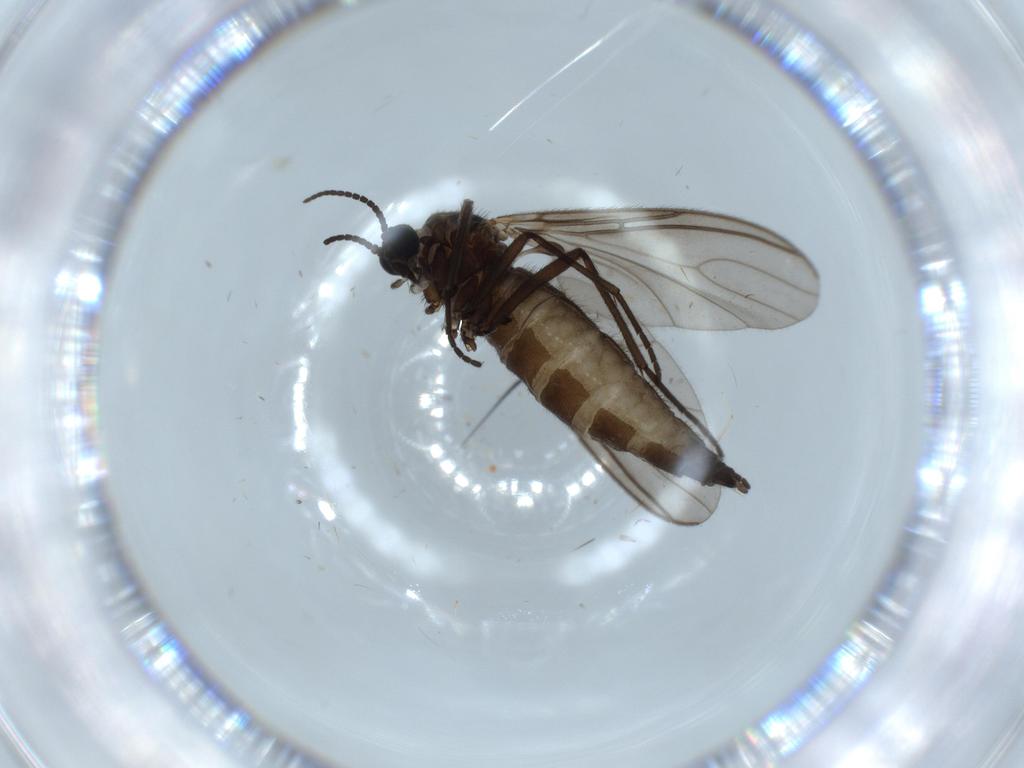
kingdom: Animalia
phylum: Arthropoda
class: Insecta
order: Diptera
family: Sciaridae
